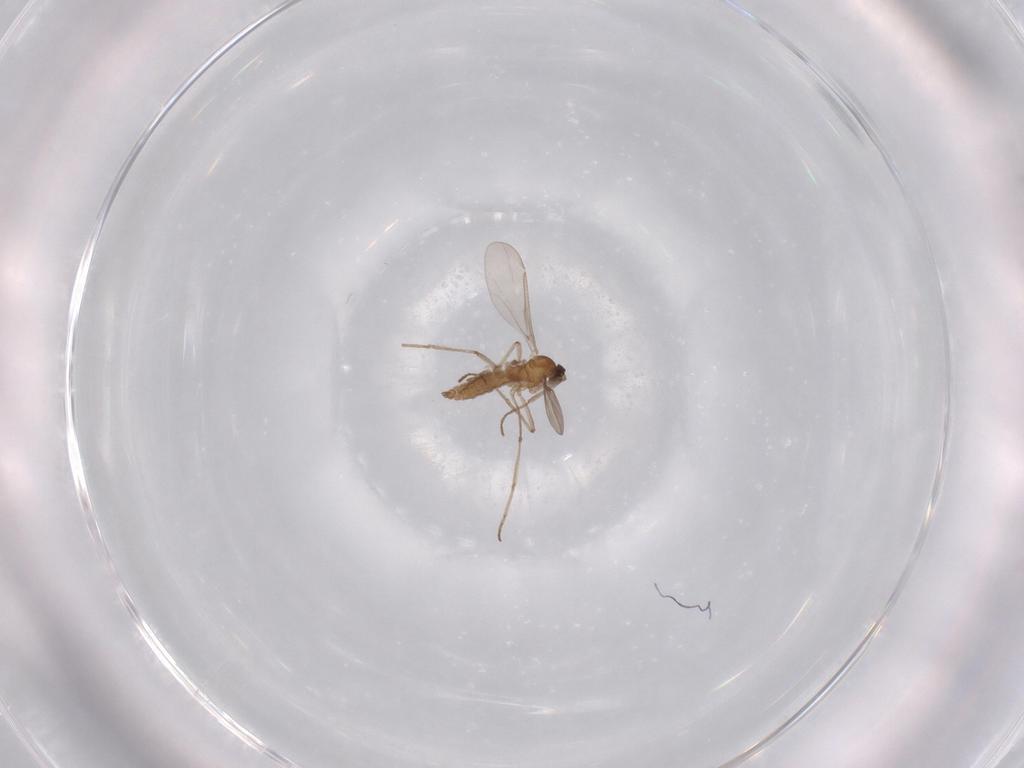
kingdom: Animalia
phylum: Arthropoda
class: Insecta
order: Diptera
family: Cecidomyiidae
